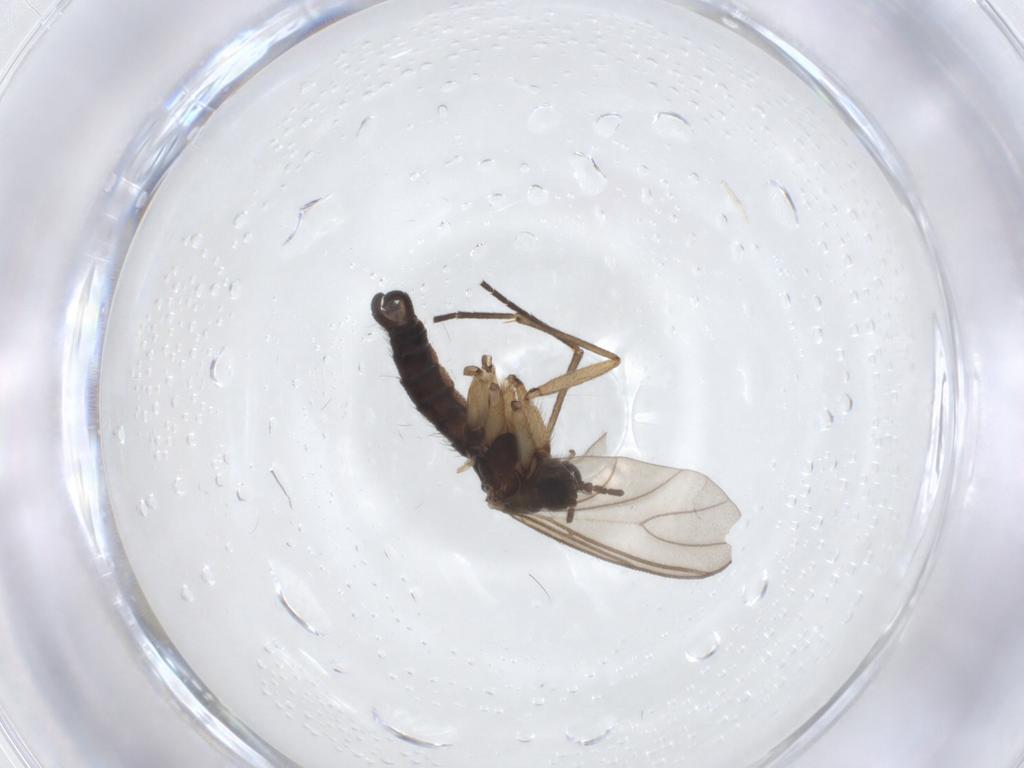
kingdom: Animalia
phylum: Arthropoda
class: Insecta
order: Diptera
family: Sciaridae
